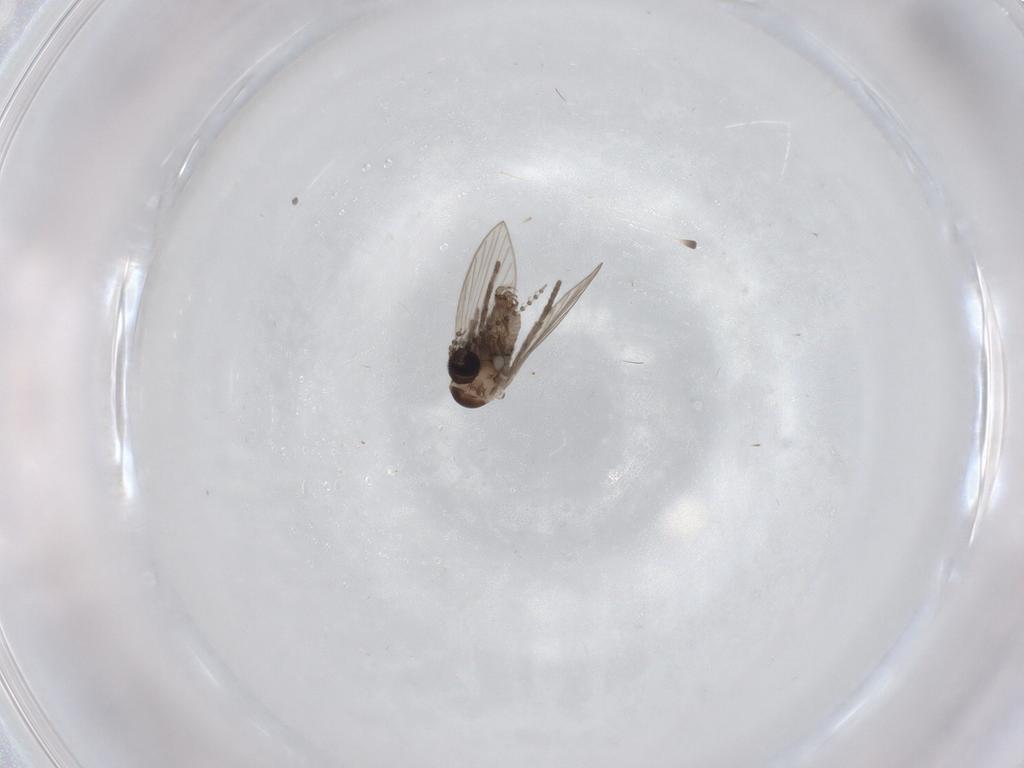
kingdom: Animalia
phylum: Arthropoda
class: Insecta
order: Diptera
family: Psychodidae
